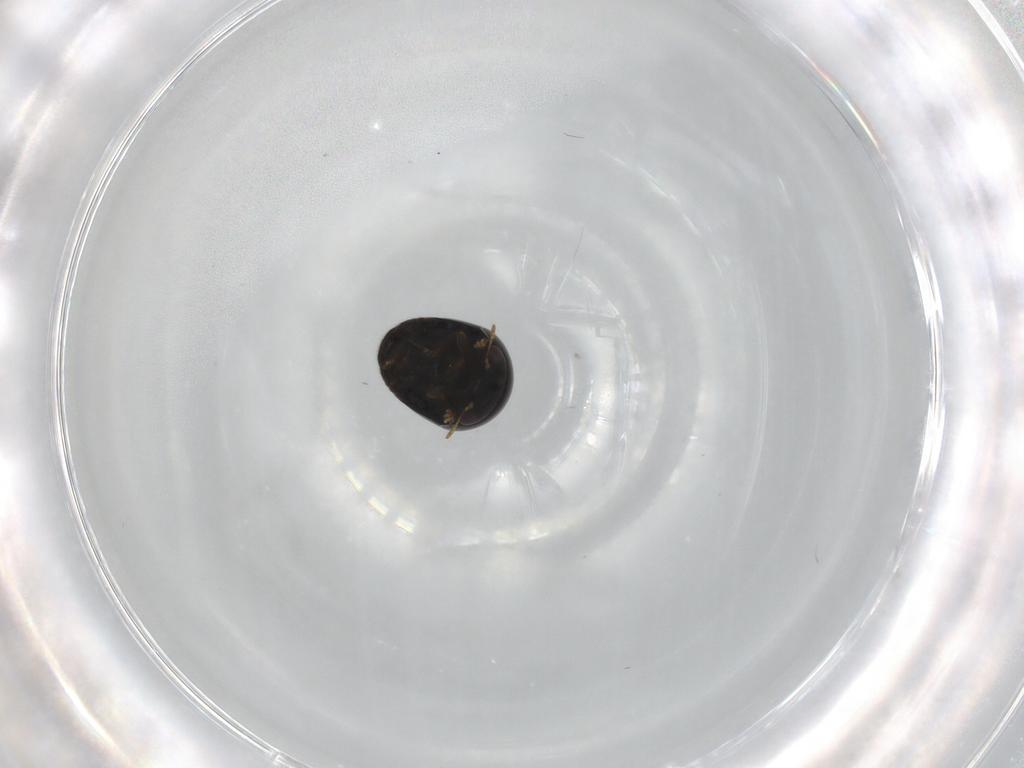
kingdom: Animalia
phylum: Arthropoda
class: Insecta
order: Coleoptera
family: Cybocephalidae
